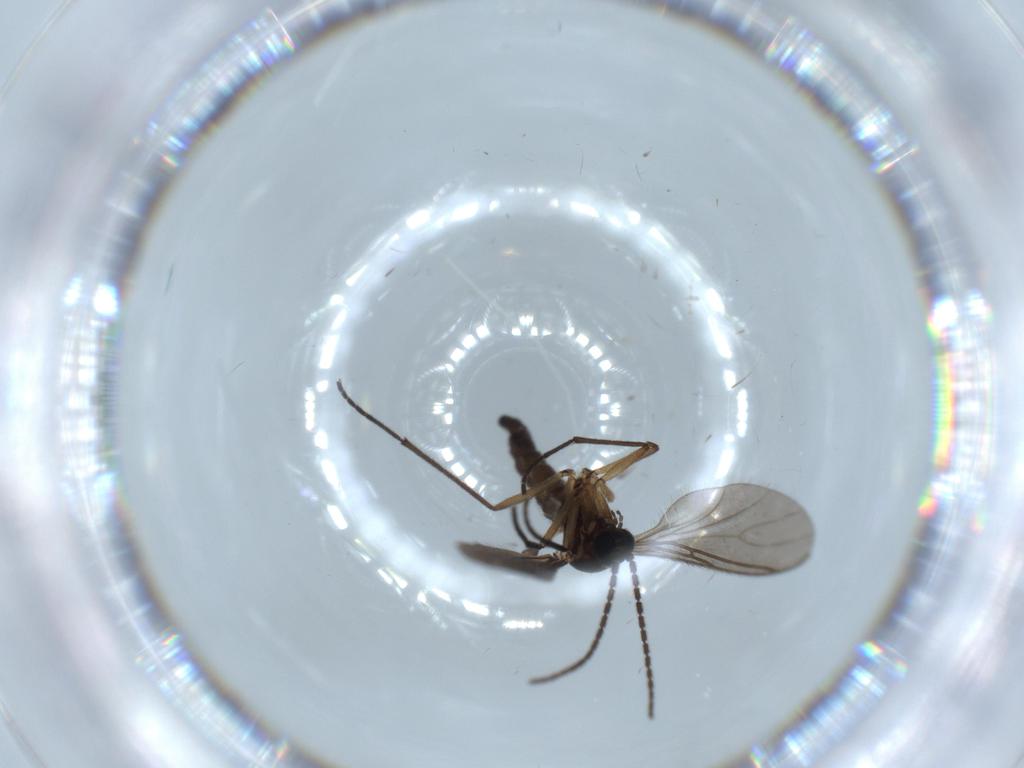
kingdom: Animalia
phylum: Arthropoda
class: Insecta
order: Diptera
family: Sciaridae
